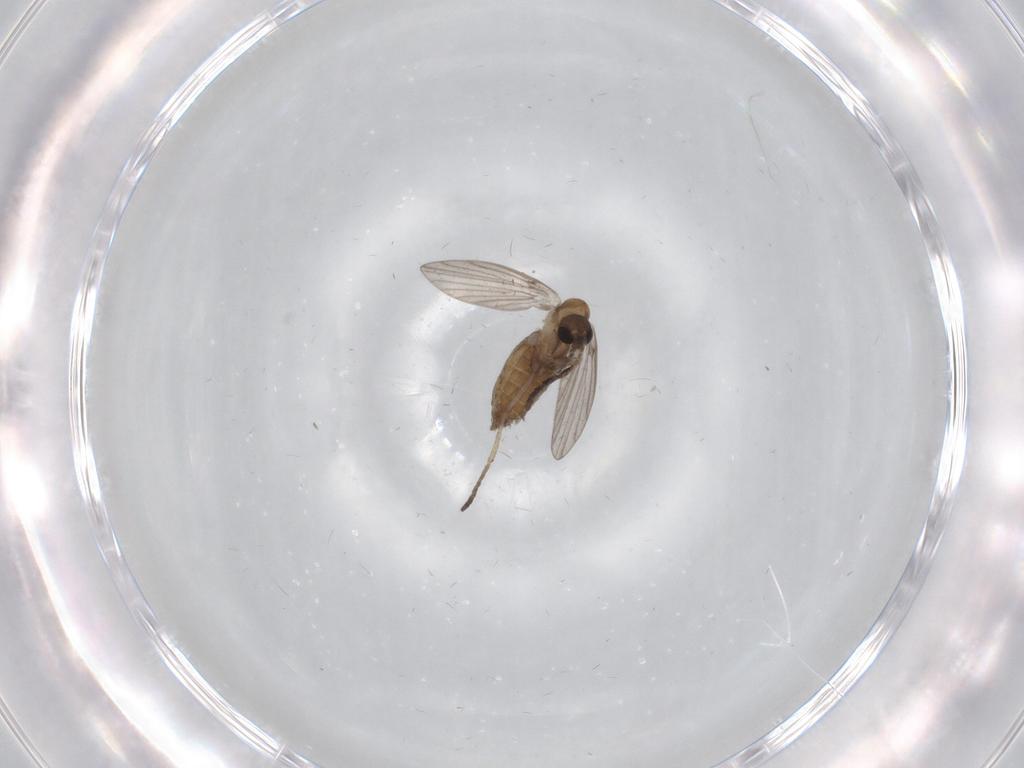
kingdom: Animalia
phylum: Arthropoda
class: Insecta
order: Diptera
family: Psychodidae
